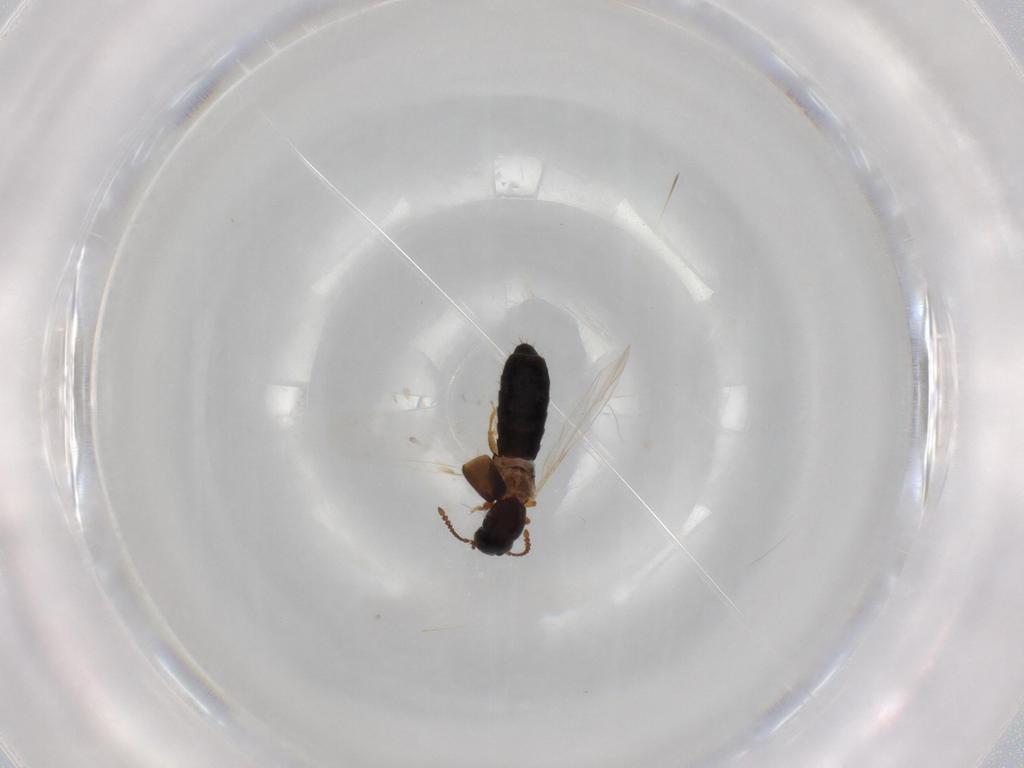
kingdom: Animalia
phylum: Arthropoda
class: Insecta
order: Coleoptera
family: Staphylinidae
